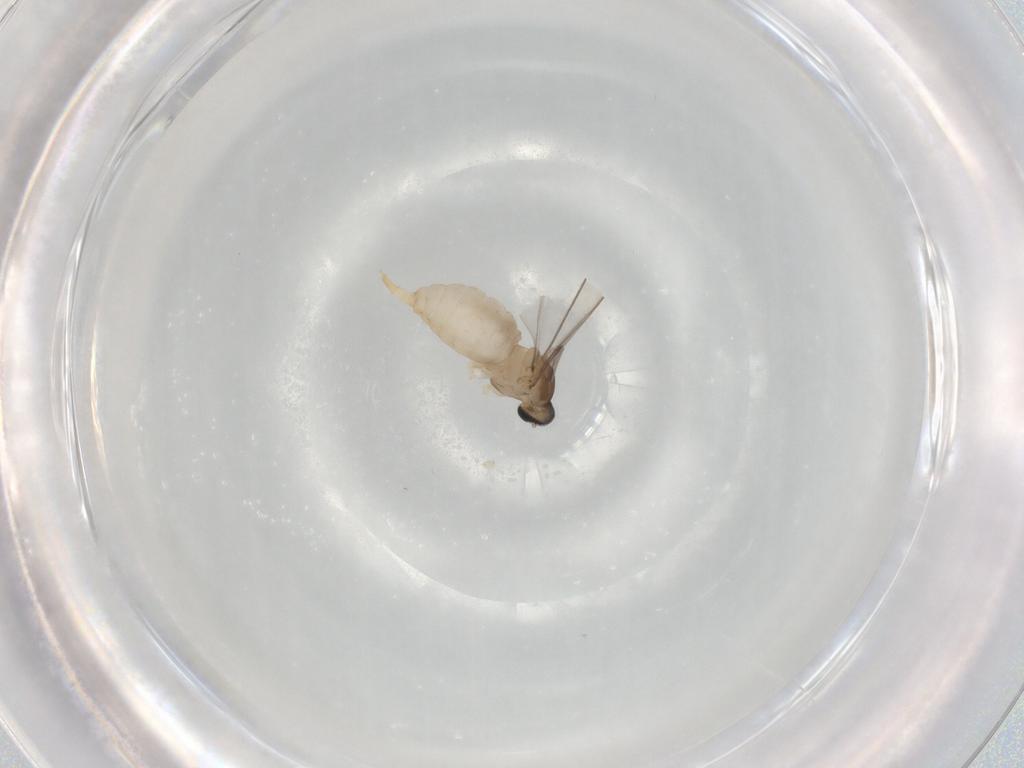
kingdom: Animalia
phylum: Arthropoda
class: Insecta
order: Diptera
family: Cecidomyiidae
